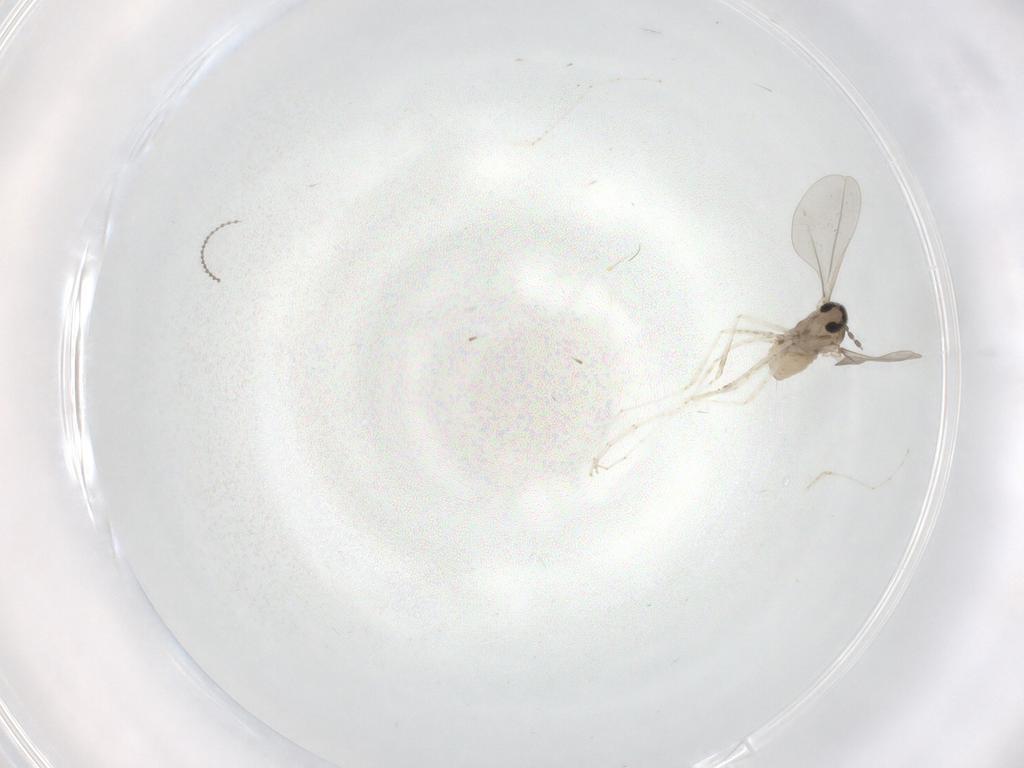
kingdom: Animalia
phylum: Arthropoda
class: Insecta
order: Diptera
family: Cecidomyiidae
